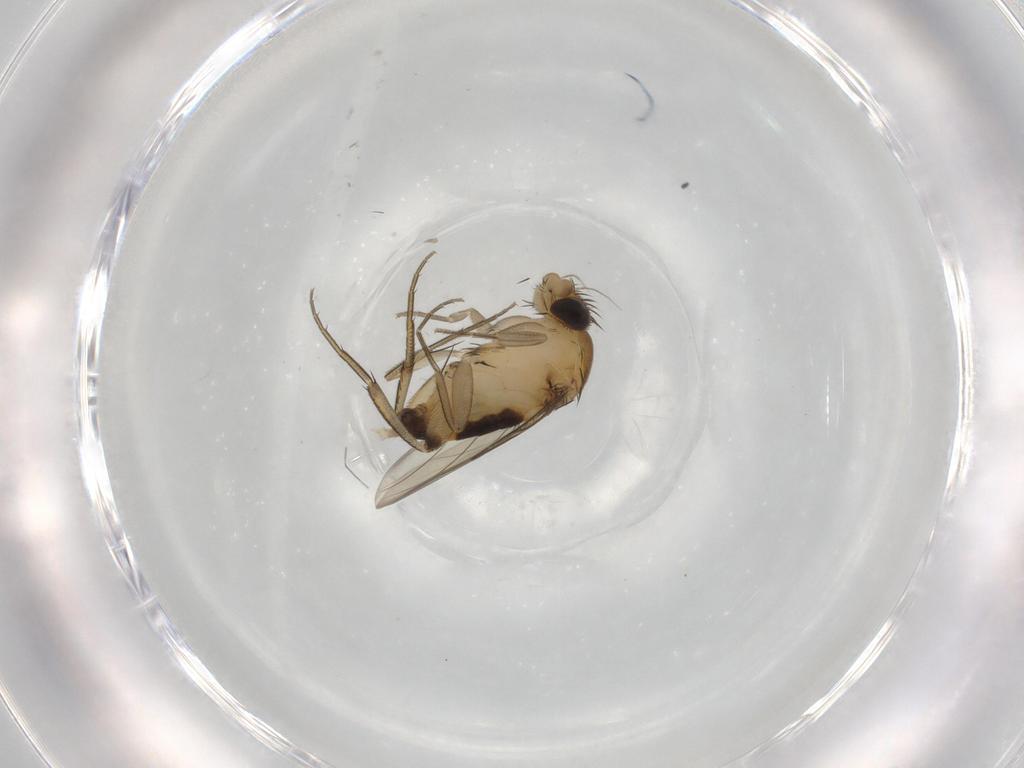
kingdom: Animalia
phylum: Arthropoda
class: Insecta
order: Diptera
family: Phoridae
